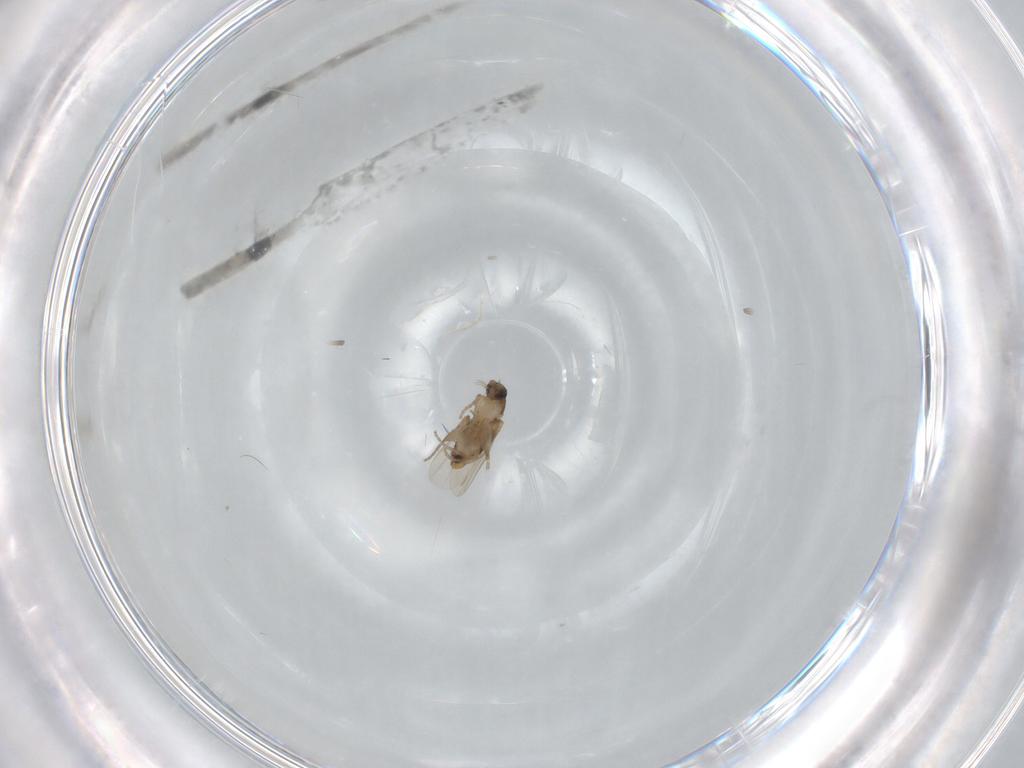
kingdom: Animalia
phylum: Arthropoda
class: Insecta
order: Diptera
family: Phoridae
